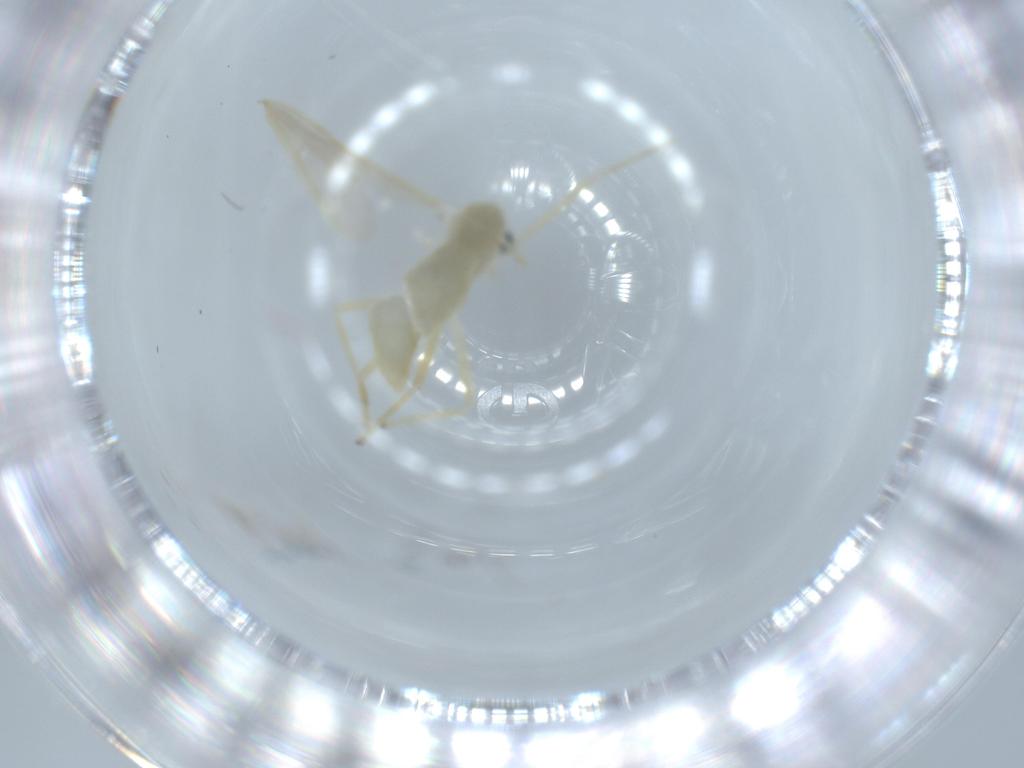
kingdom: Animalia
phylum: Arthropoda
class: Insecta
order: Diptera
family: Chironomidae
